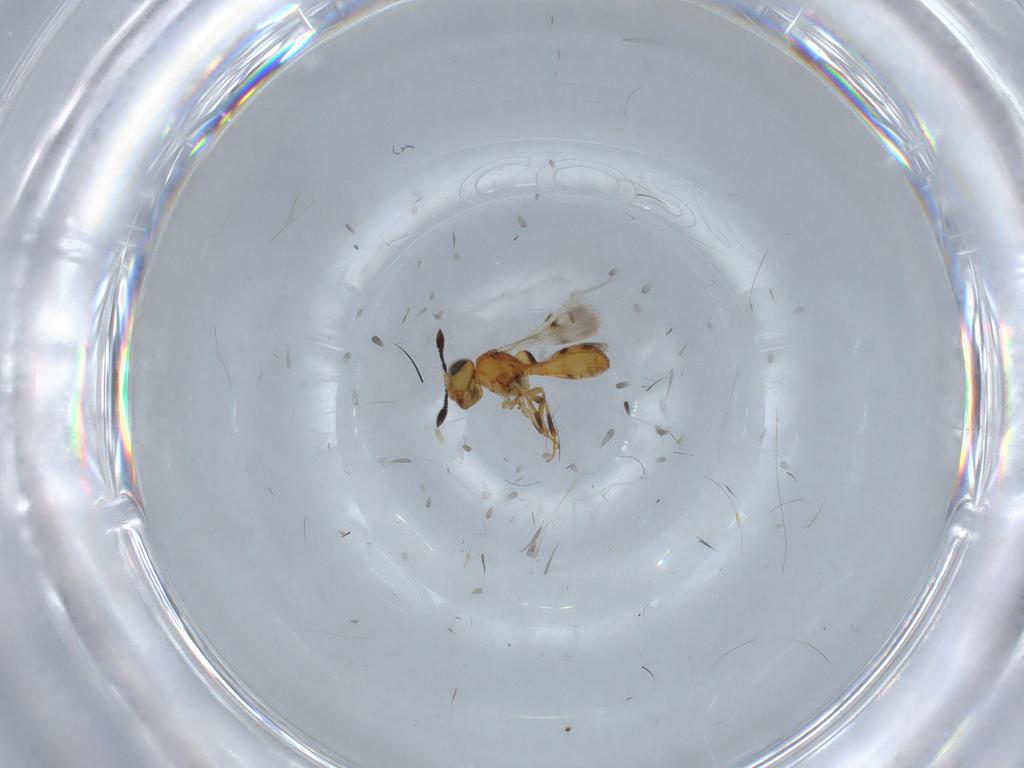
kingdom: Animalia
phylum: Arthropoda
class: Insecta
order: Hymenoptera
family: Scelionidae
